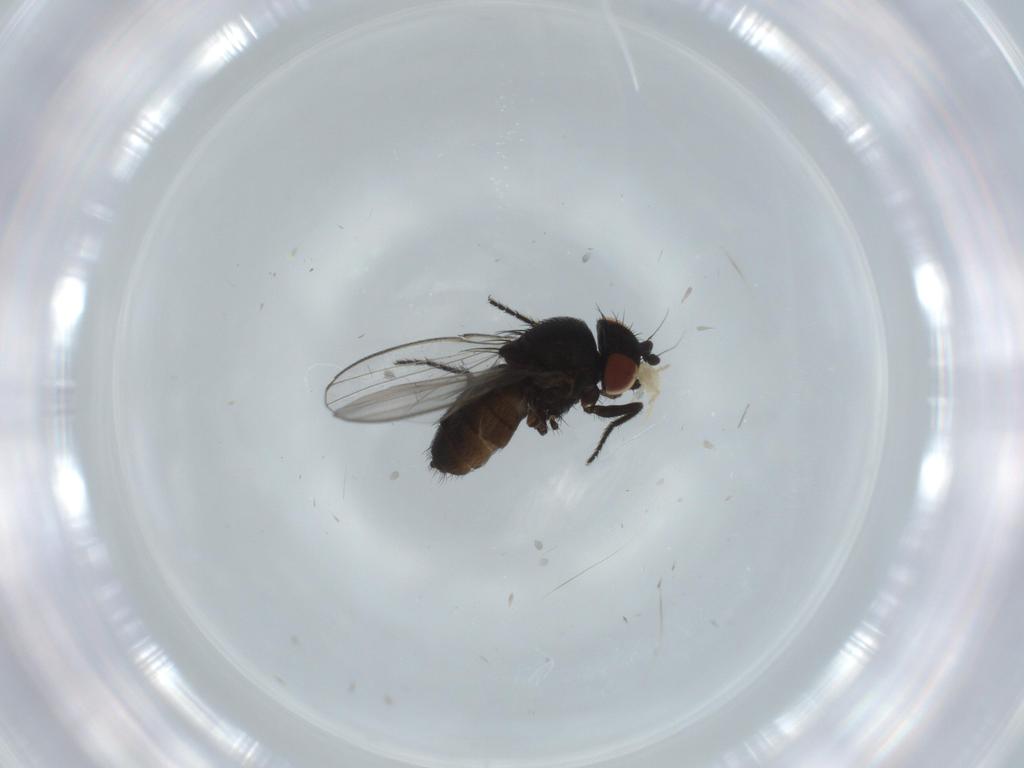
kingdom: Animalia
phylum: Arthropoda
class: Insecta
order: Diptera
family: Milichiidae
